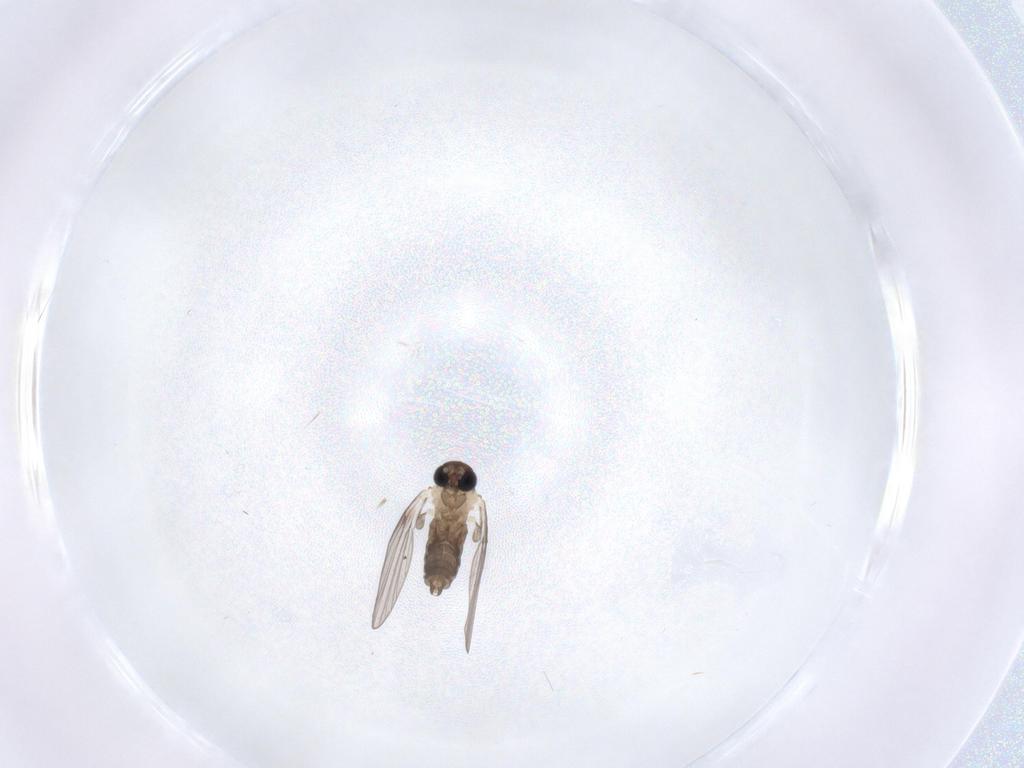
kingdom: Animalia
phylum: Arthropoda
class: Insecta
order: Diptera
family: Psychodidae
